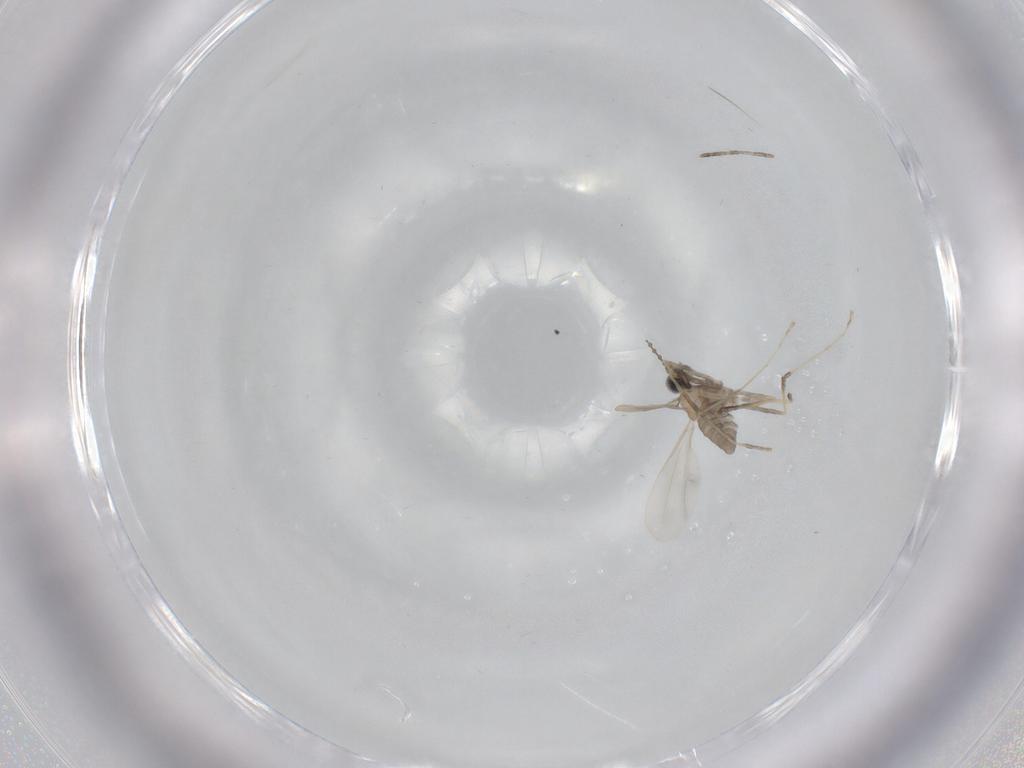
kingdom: Animalia
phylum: Arthropoda
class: Insecta
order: Diptera
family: Cecidomyiidae
